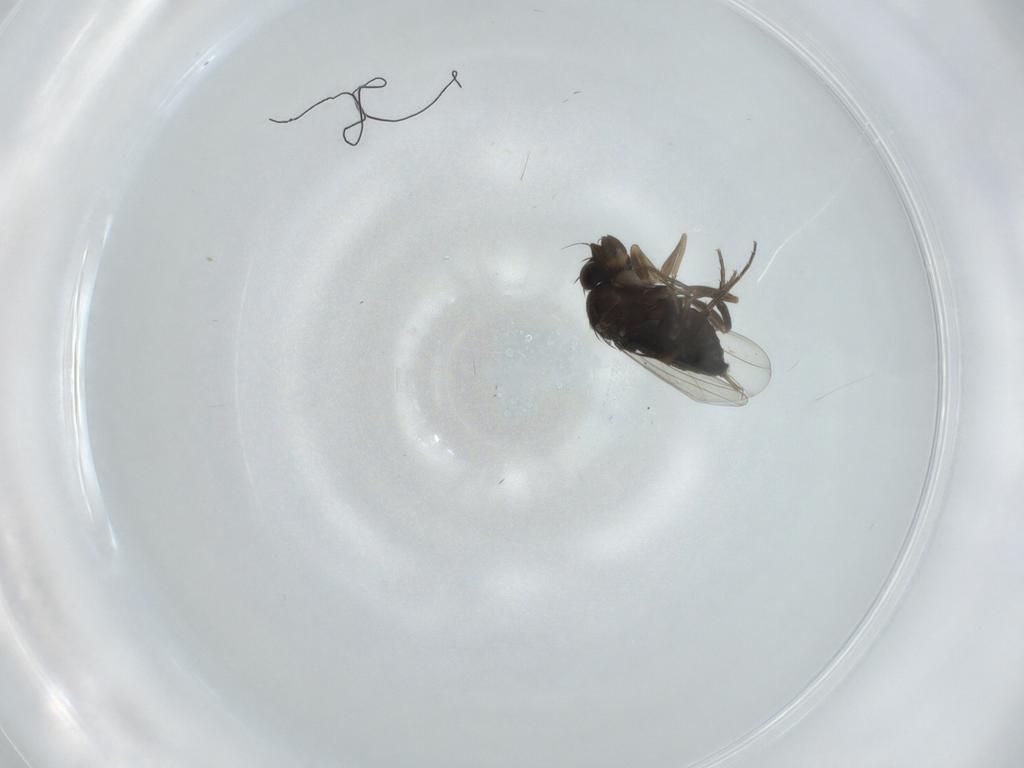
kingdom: Animalia
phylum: Arthropoda
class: Insecta
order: Diptera
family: Phoridae
